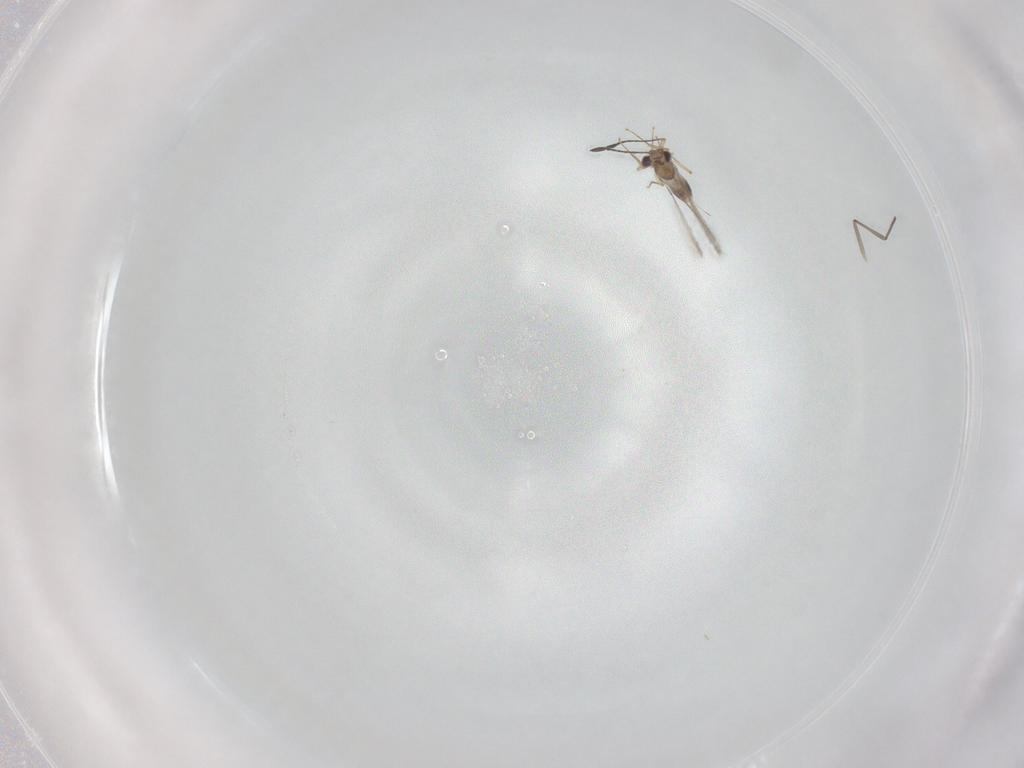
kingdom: Animalia
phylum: Arthropoda
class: Insecta
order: Hymenoptera
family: Mymaridae
